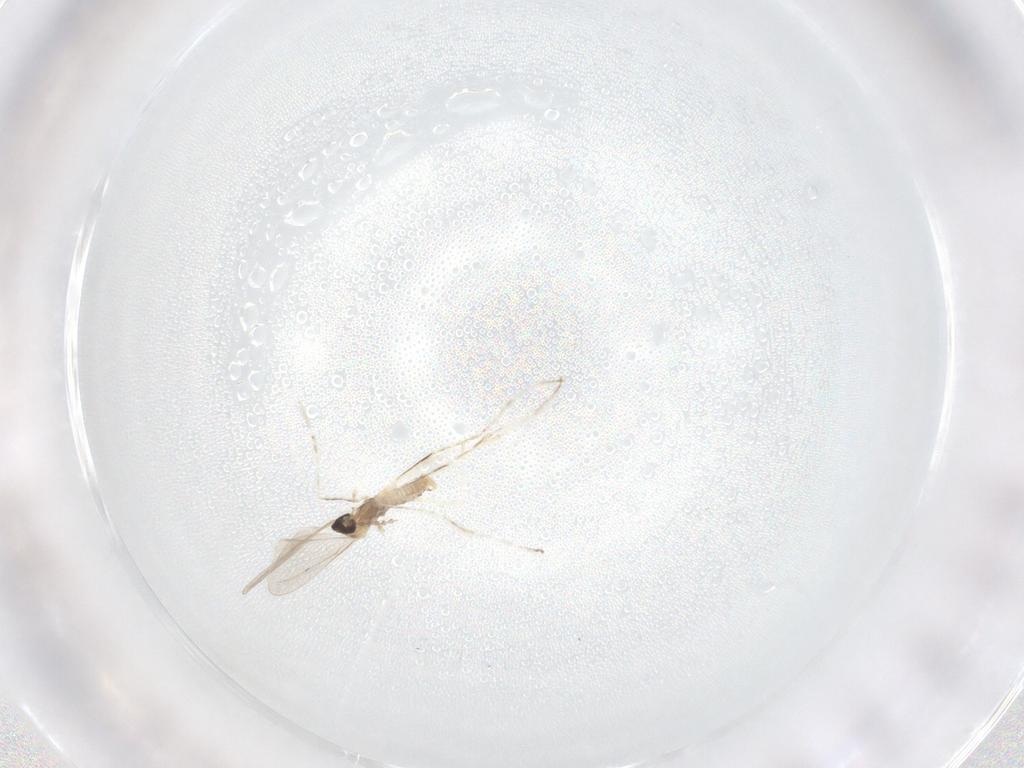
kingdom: Animalia
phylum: Arthropoda
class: Insecta
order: Diptera
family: Cecidomyiidae
